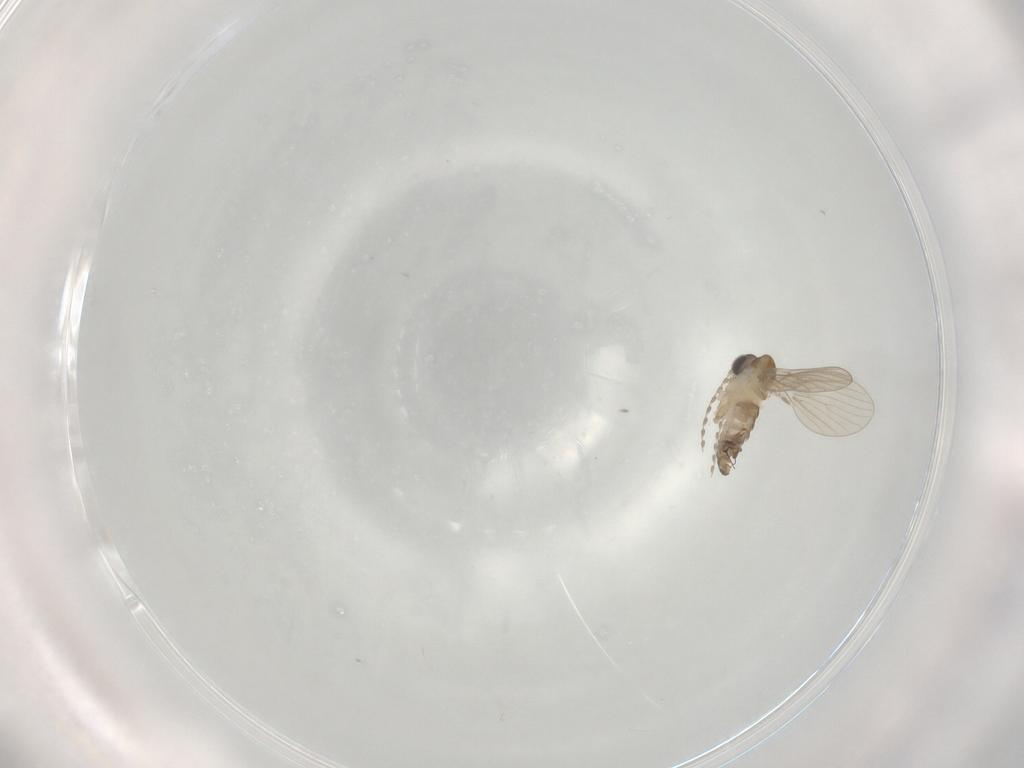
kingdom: Animalia
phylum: Arthropoda
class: Insecta
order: Diptera
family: Psychodidae
